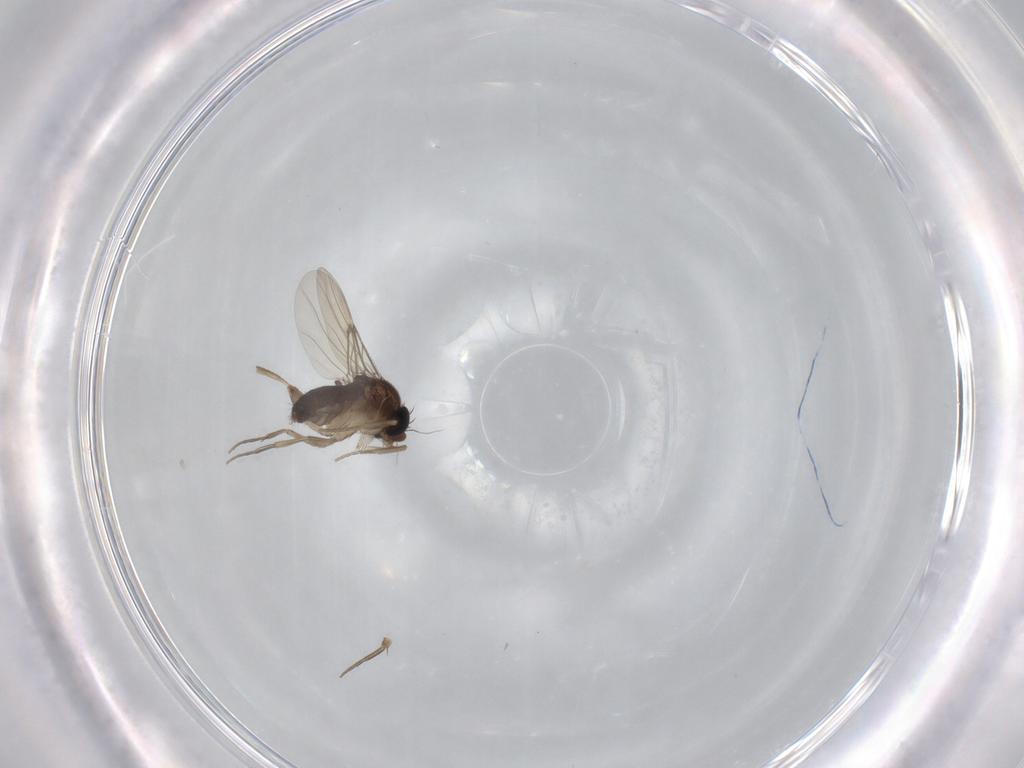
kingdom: Animalia
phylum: Arthropoda
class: Insecta
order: Diptera
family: Phoridae
